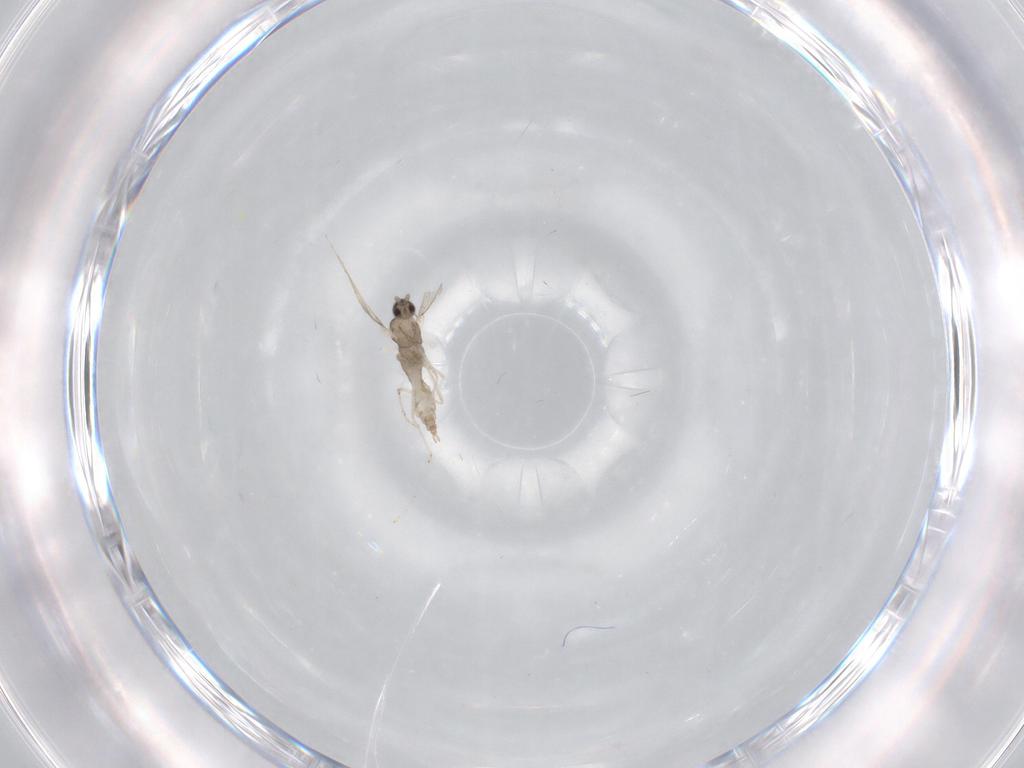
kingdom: Animalia
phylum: Arthropoda
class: Insecta
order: Diptera
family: Cecidomyiidae
